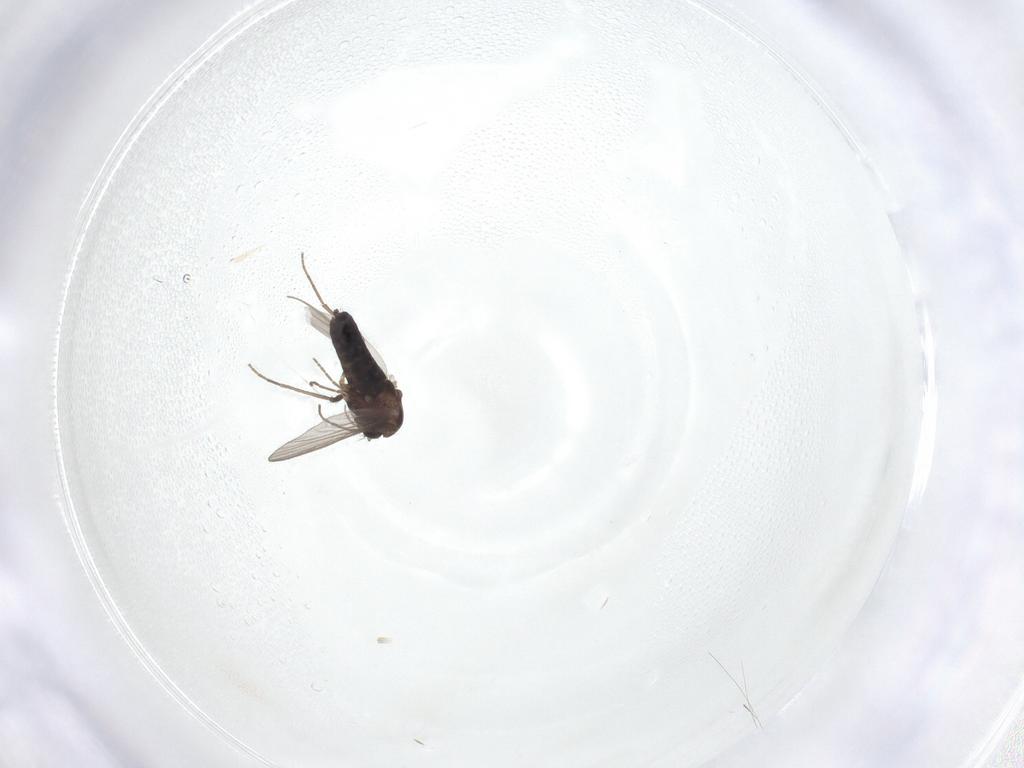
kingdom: Animalia
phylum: Arthropoda
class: Insecta
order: Diptera
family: Chironomidae
